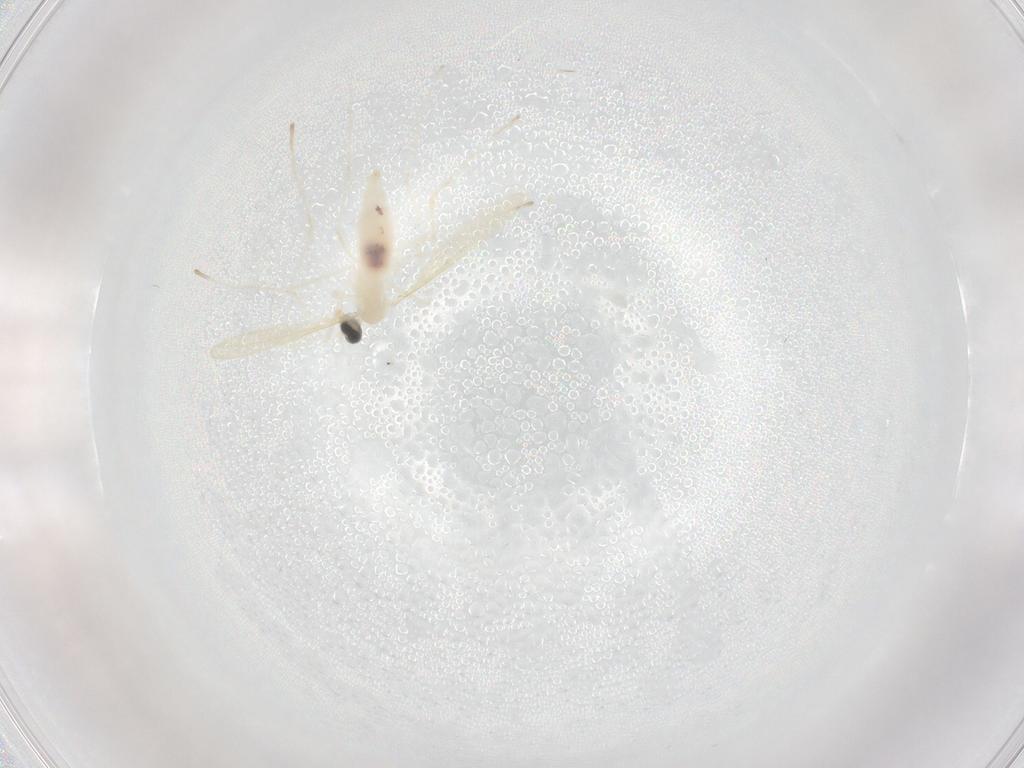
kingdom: Animalia
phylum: Arthropoda
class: Insecta
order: Diptera
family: Chironomidae
